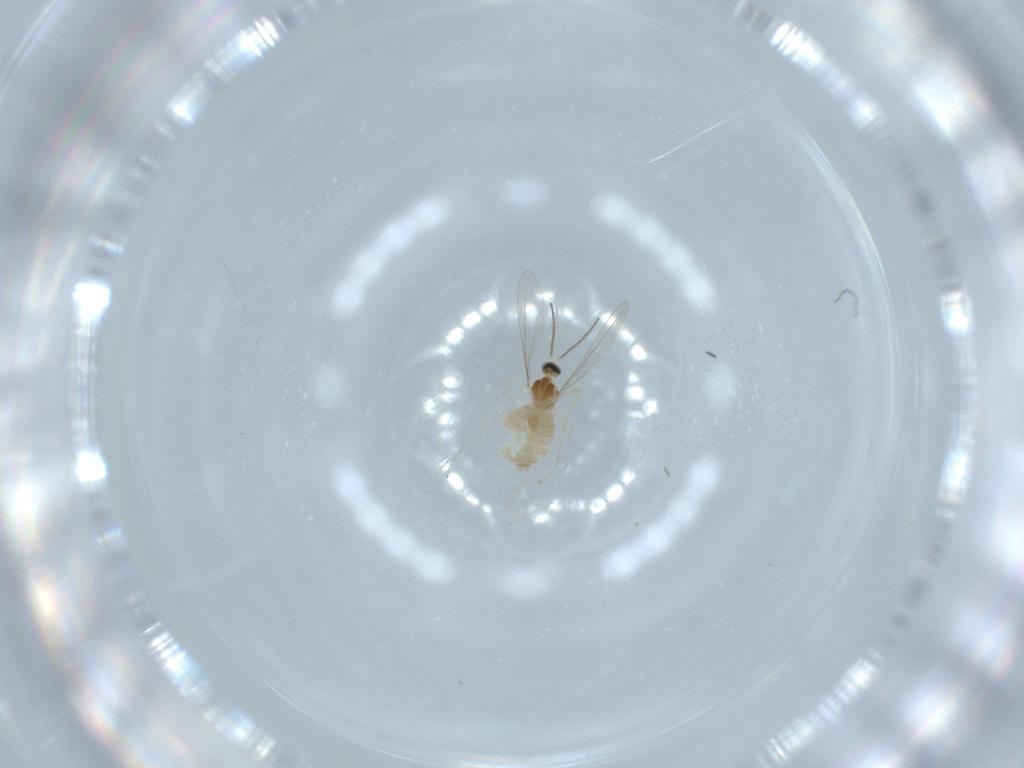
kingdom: Animalia
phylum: Arthropoda
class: Insecta
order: Diptera
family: Cecidomyiidae
